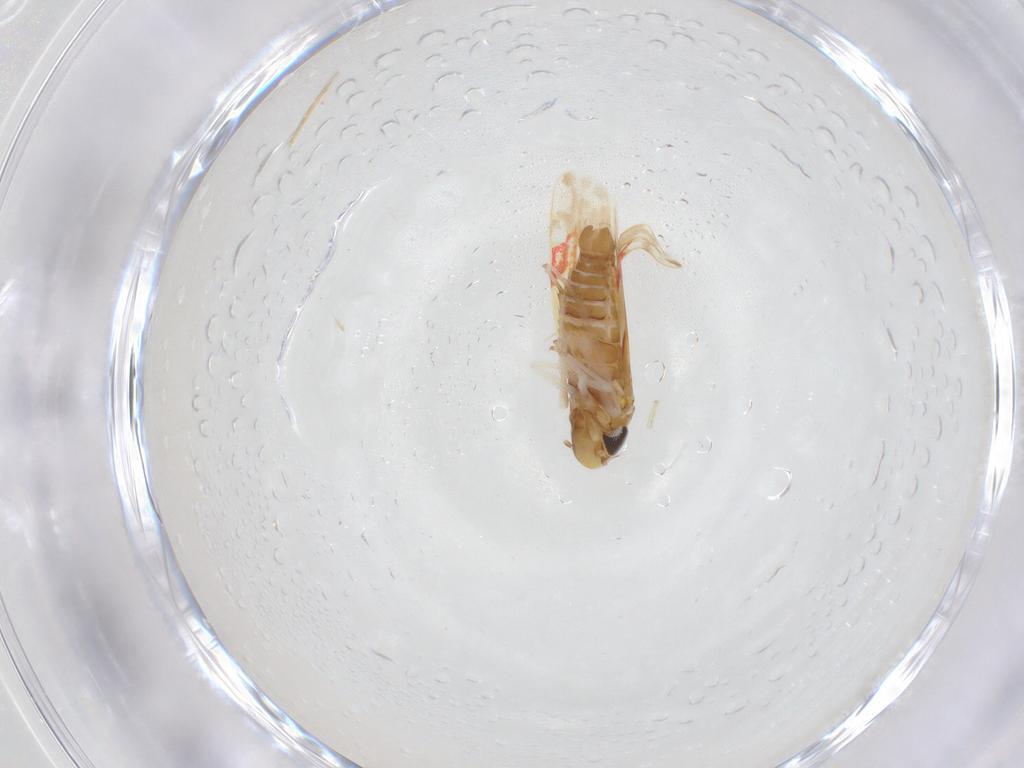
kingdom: Animalia
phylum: Arthropoda
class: Insecta
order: Hemiptera
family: Cicadellidae
